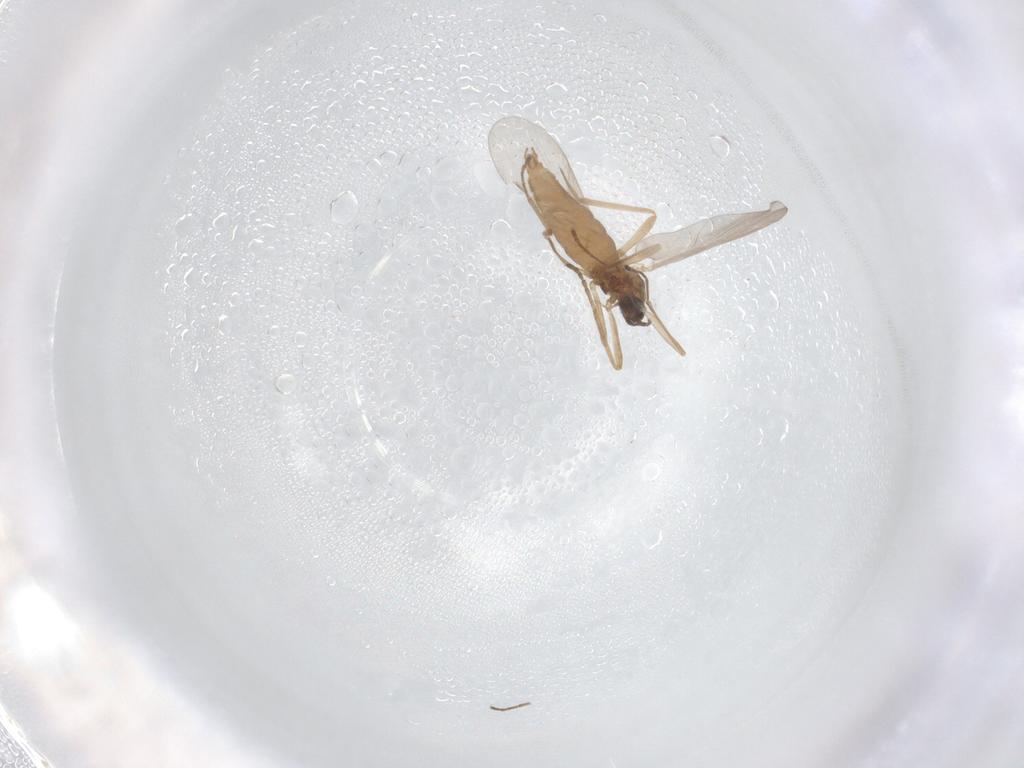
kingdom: Animalia
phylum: Arthropoda
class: Insecta
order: Diptera
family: Cecidomyiidae
